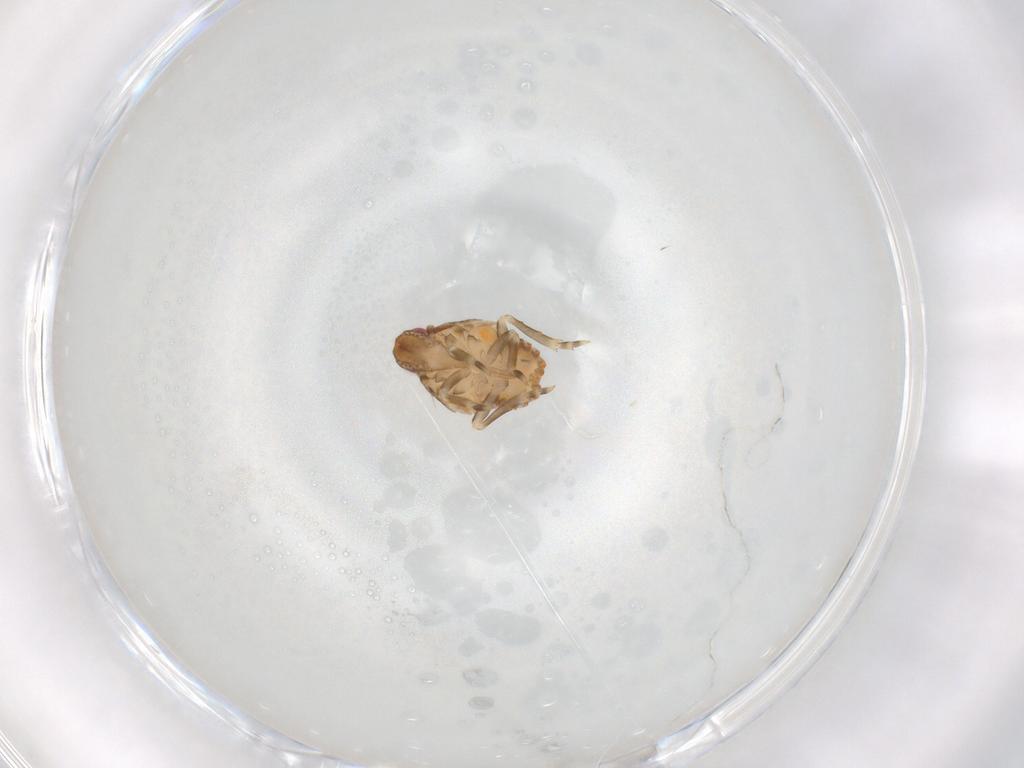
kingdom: Animalia
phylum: Arthropoda
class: Insecta
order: Hemiptera
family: Flatidae
